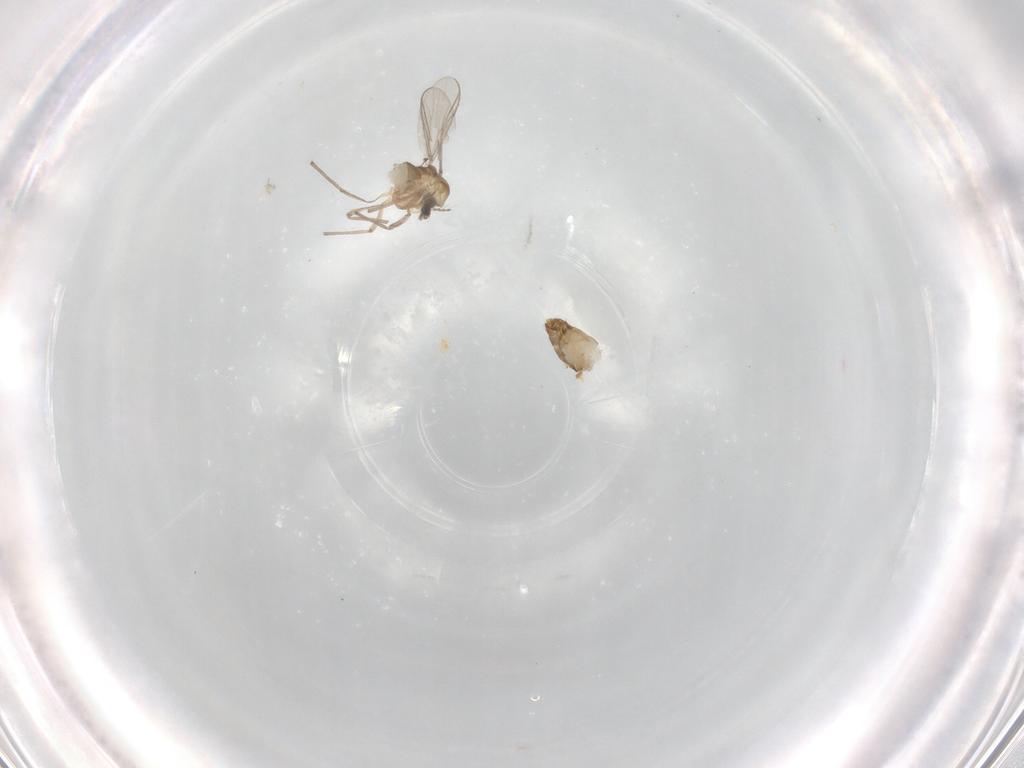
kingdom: Animalia
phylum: Arthropoda
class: Insecta
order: Diptera
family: Chironomidae
